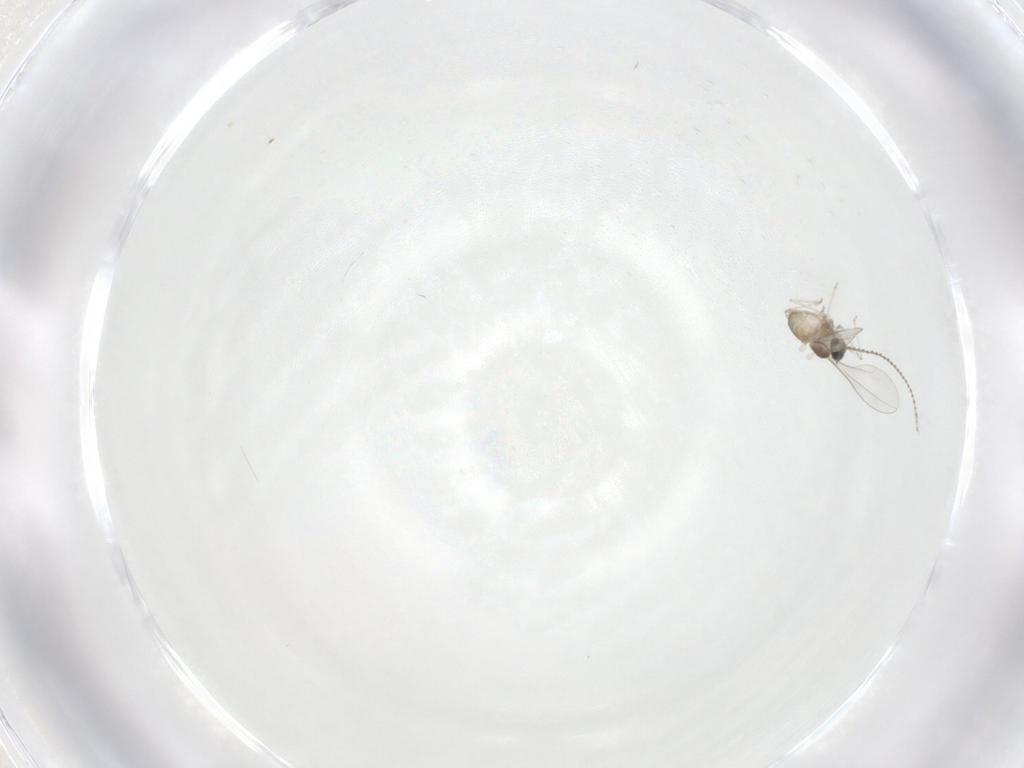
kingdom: Animalia
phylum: Arthropoda
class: Insecta
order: Diptera
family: Cecidomyiidae
